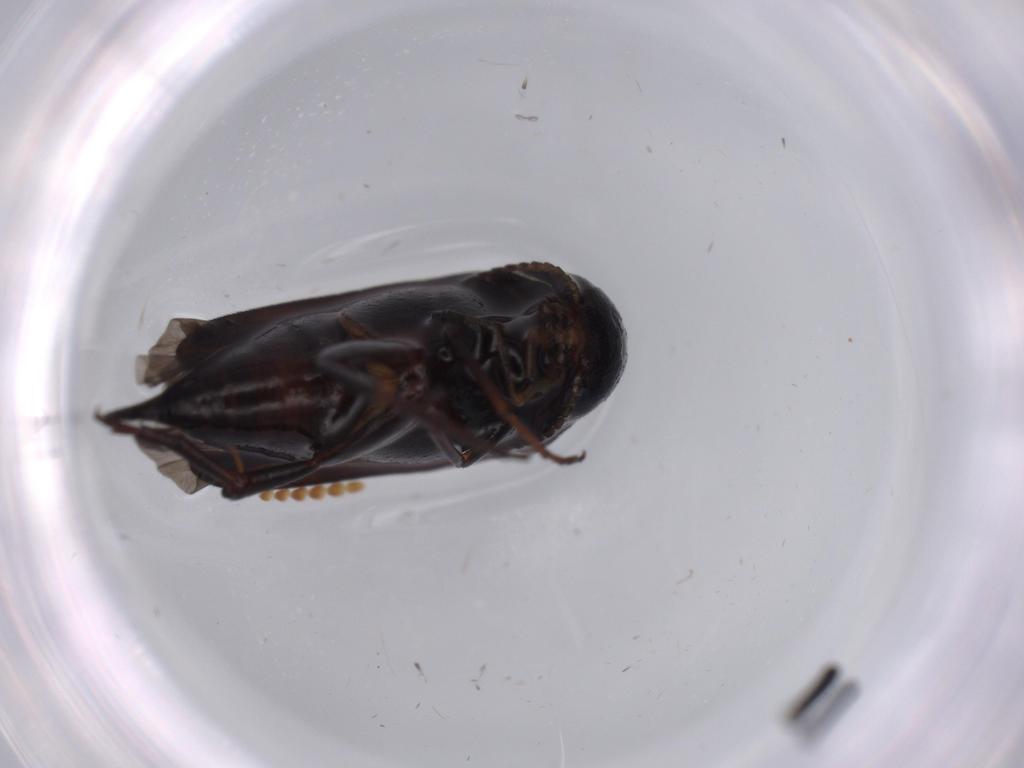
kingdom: Animalia
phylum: Arthropoda
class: Insecta
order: Coleoptera
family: Mordellidae
